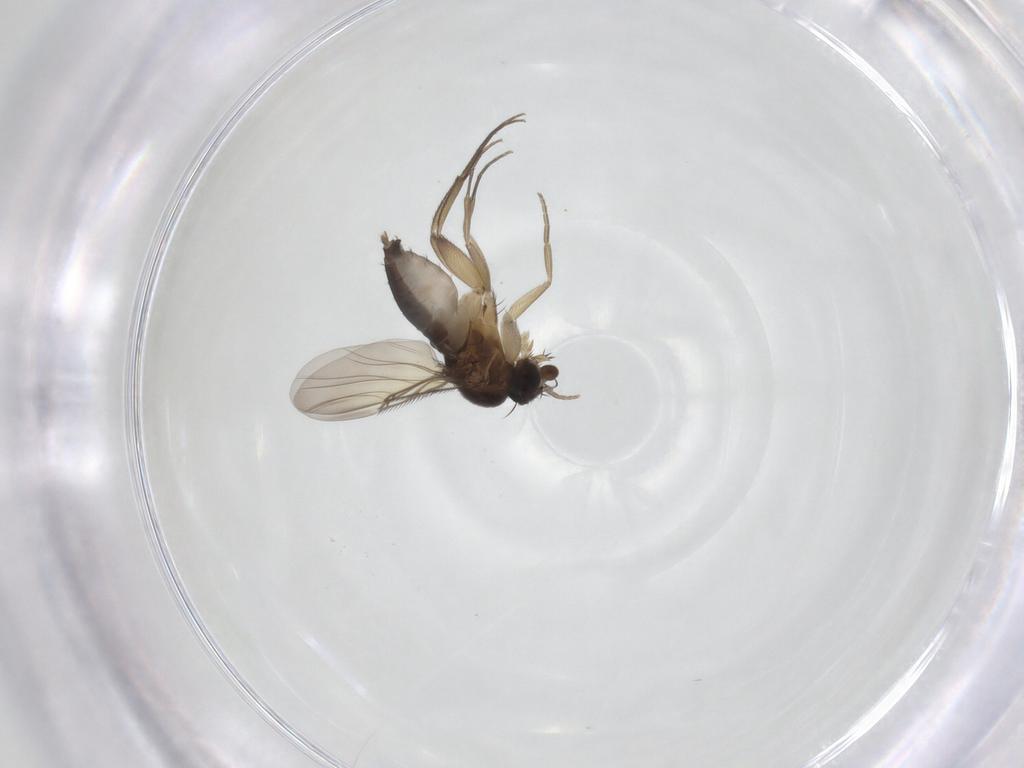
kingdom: Animalia
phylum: Arthropoda
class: Insecta
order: Diptera
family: Phoridae
